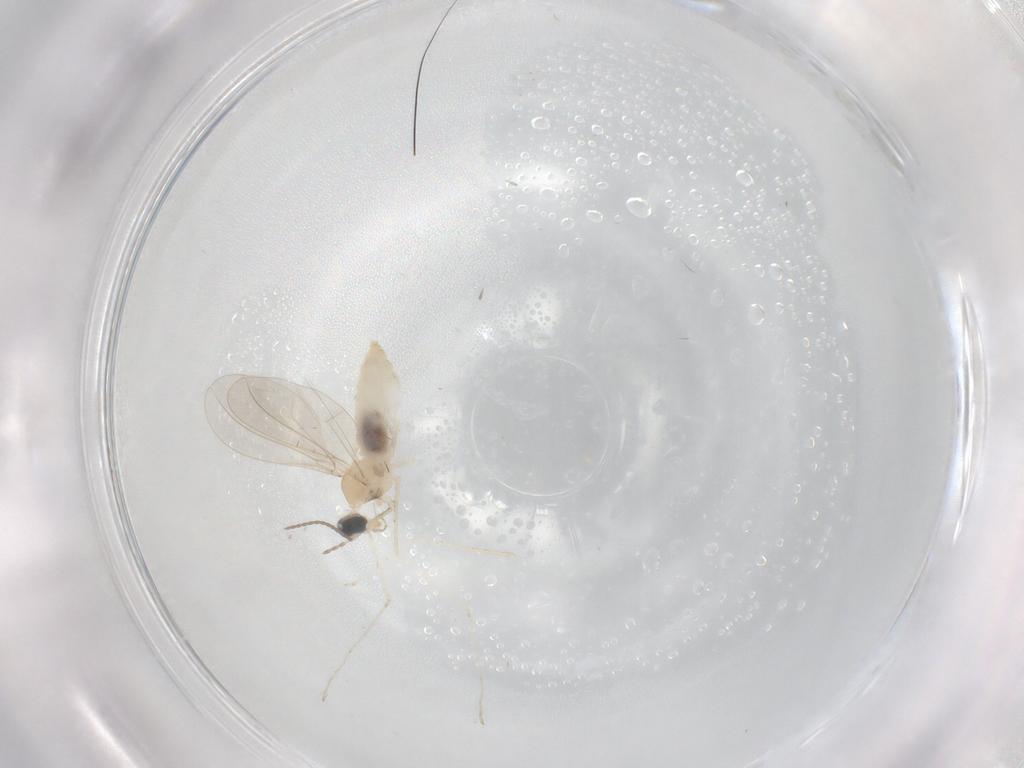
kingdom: Animalia
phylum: Arthropoda
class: Insecta
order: Diptera
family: Cecidomyiidae
